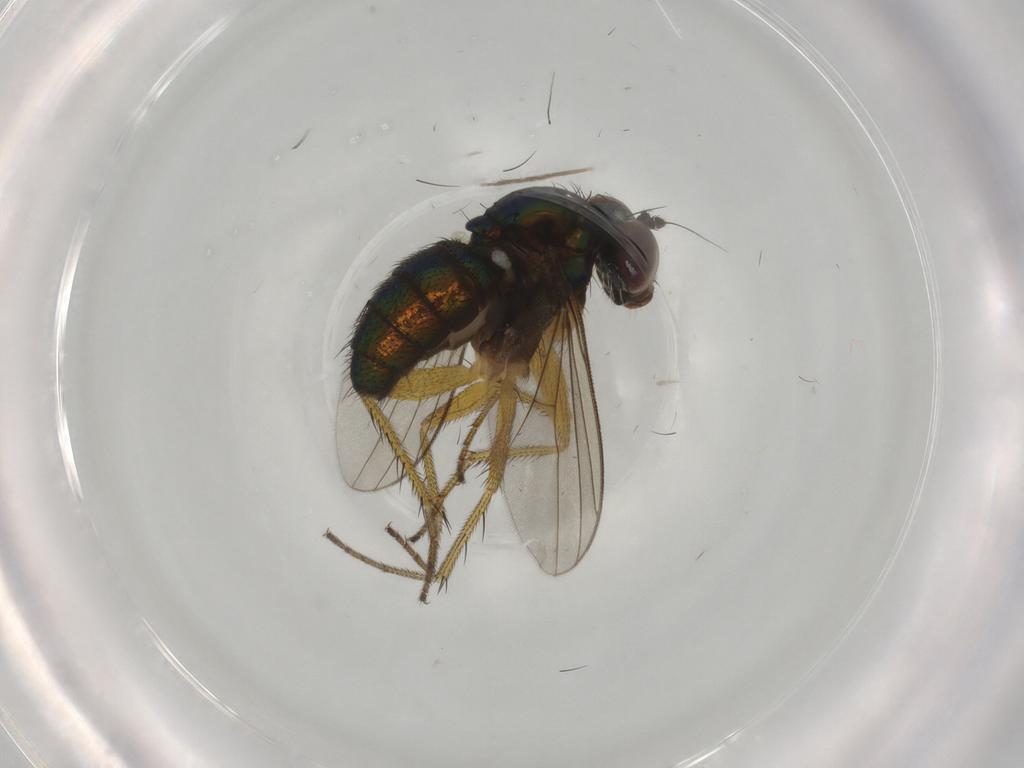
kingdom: Animalia
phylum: Arthropoda
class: Insecta
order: Diptera
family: Dolichopodidae
